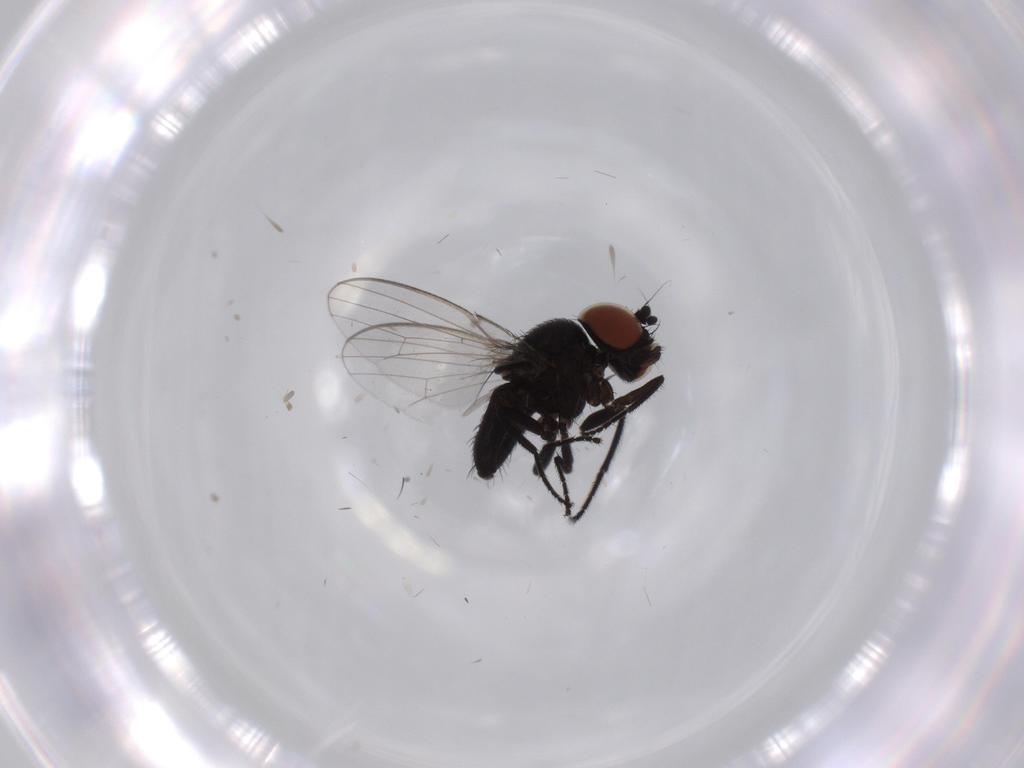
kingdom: Animalia
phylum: Arthropoda
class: Insecta
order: Diptera
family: Milichiidae
